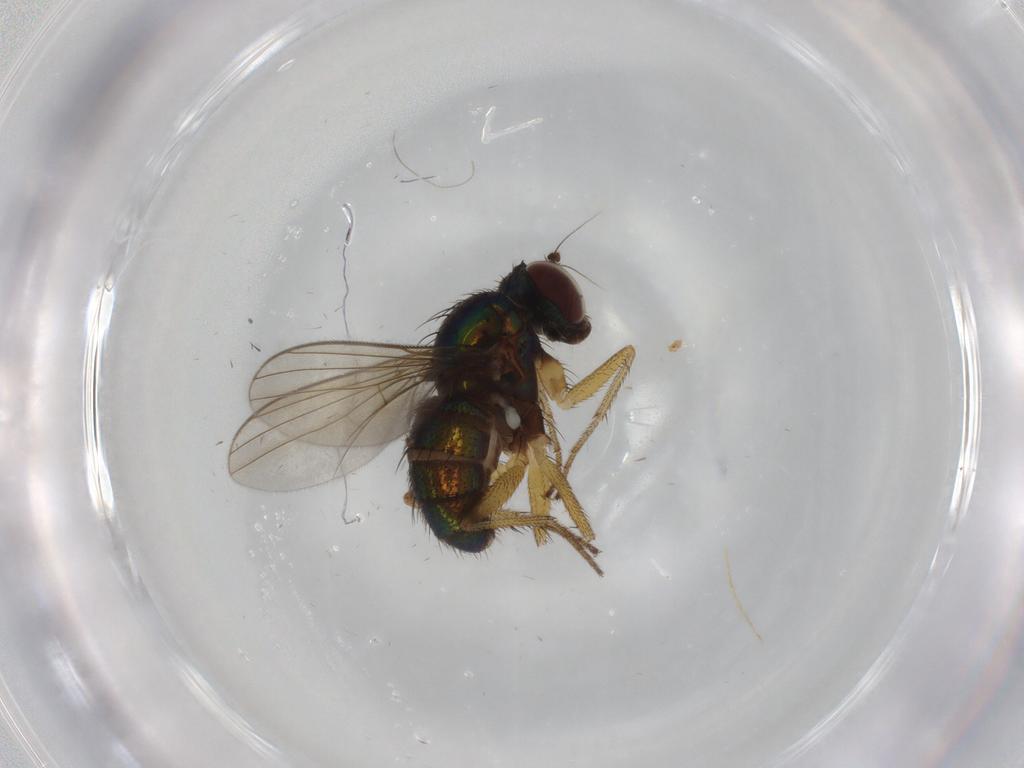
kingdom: Animalia
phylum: Arthropoda
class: Insecta
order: Diptera
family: Dolichopodidae
